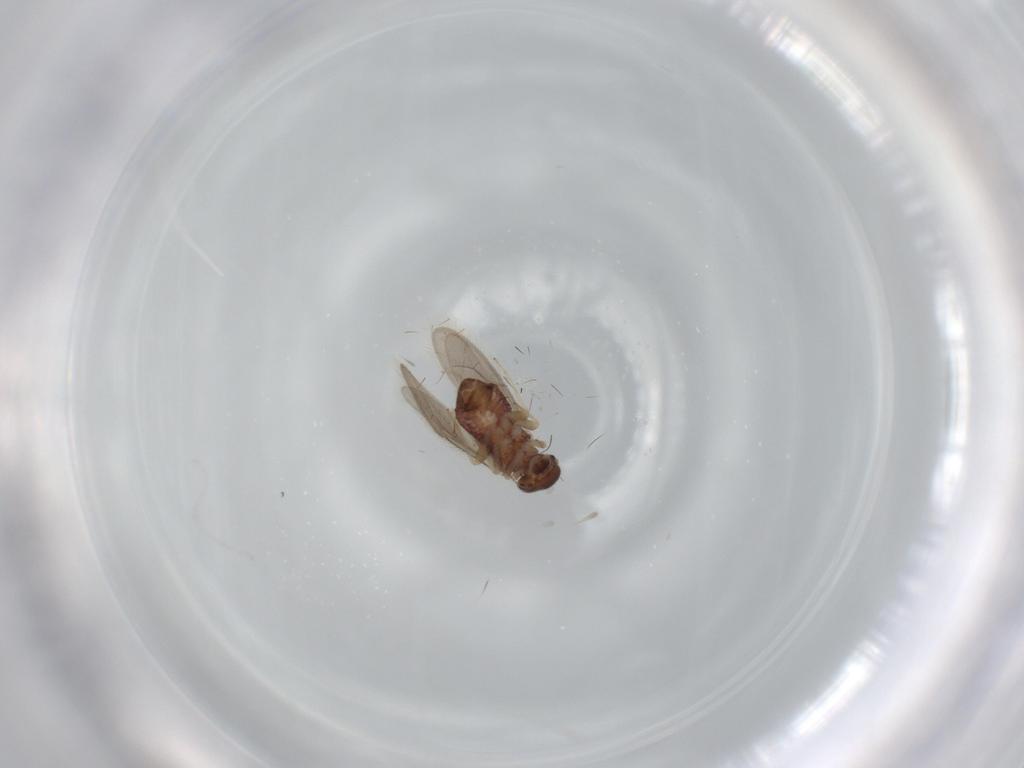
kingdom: Animalia
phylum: Arthropoda
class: Insecta
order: Psocodea
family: Archipsocidae
